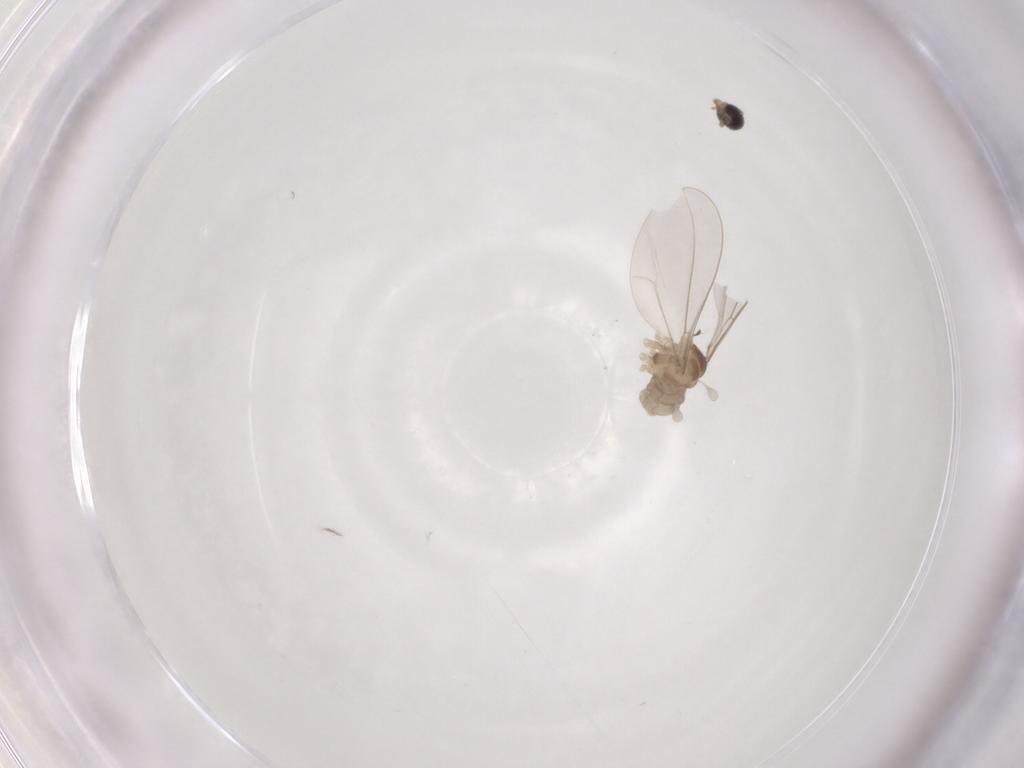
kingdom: Animalia
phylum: Arthropoda
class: Insecta
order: Diptera
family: Cecidomyiidae
